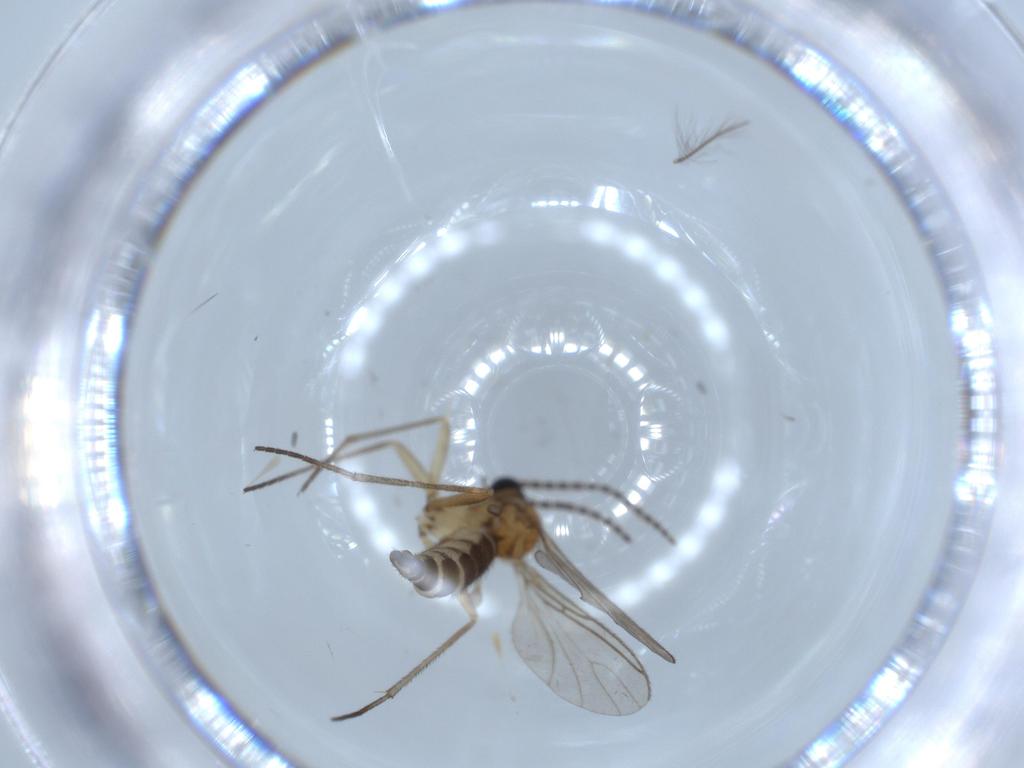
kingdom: Animalia
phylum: Arthropoda
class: Insecta
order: Diptera
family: Sciaridae
